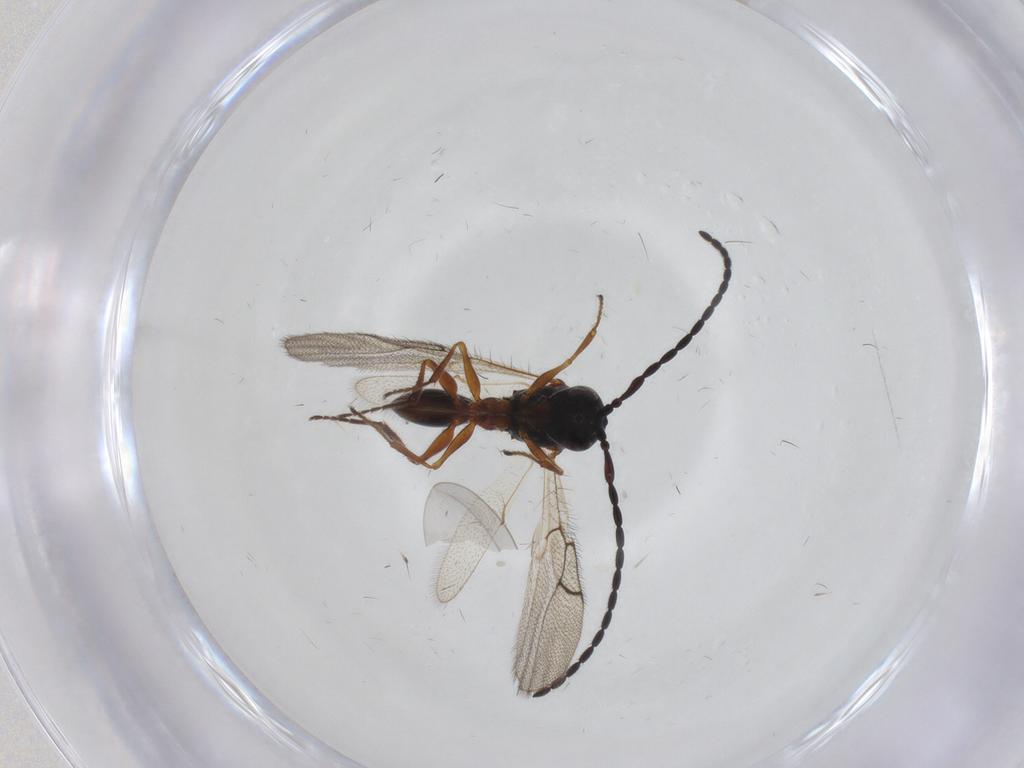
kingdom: Animalia
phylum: Arthropoda
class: Insecta
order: Hymenoptera
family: Figitidae
